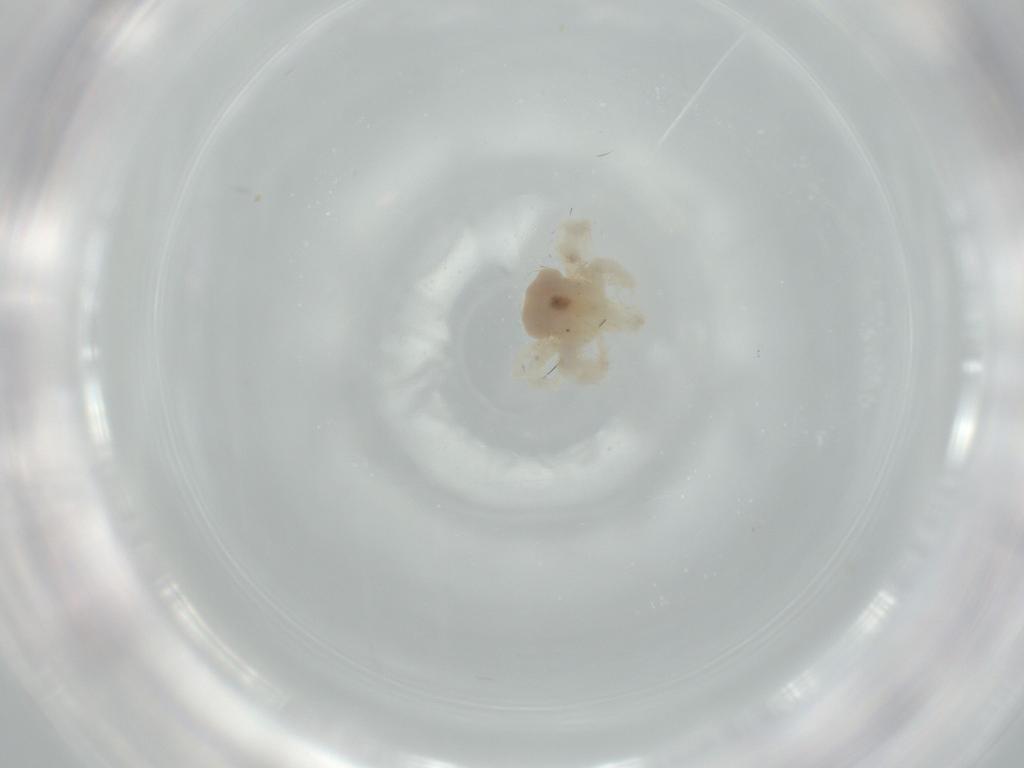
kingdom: Animalia
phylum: Arthropoda
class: Arachnida
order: Trombidiformes
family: Anystidae
